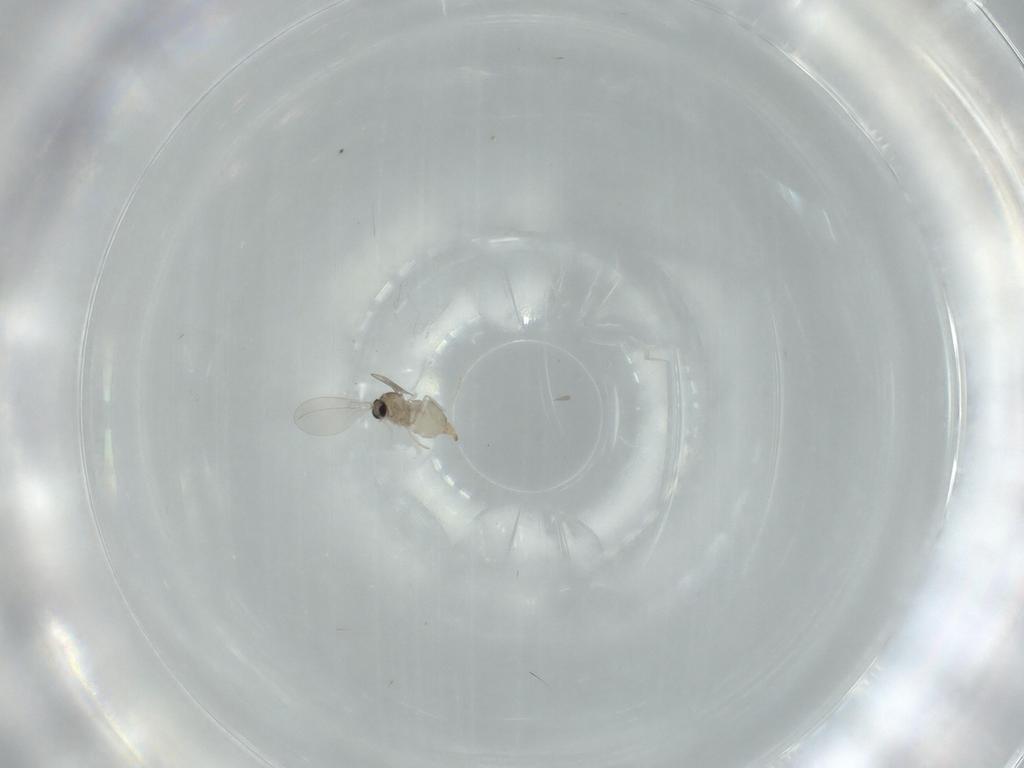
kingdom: Animalia
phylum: Arthropoda
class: Insecta
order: Diptera
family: Sciaridae
